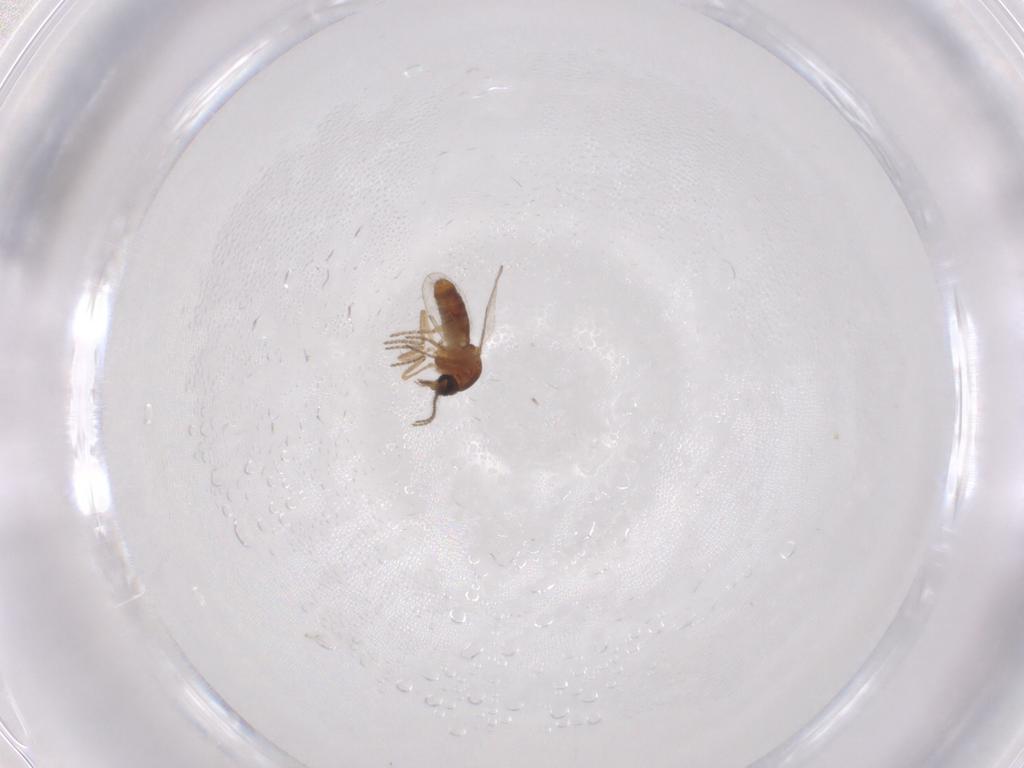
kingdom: Animalia
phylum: Arthropoda
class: Insecta
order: Diptera
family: Ceratopogonidae
